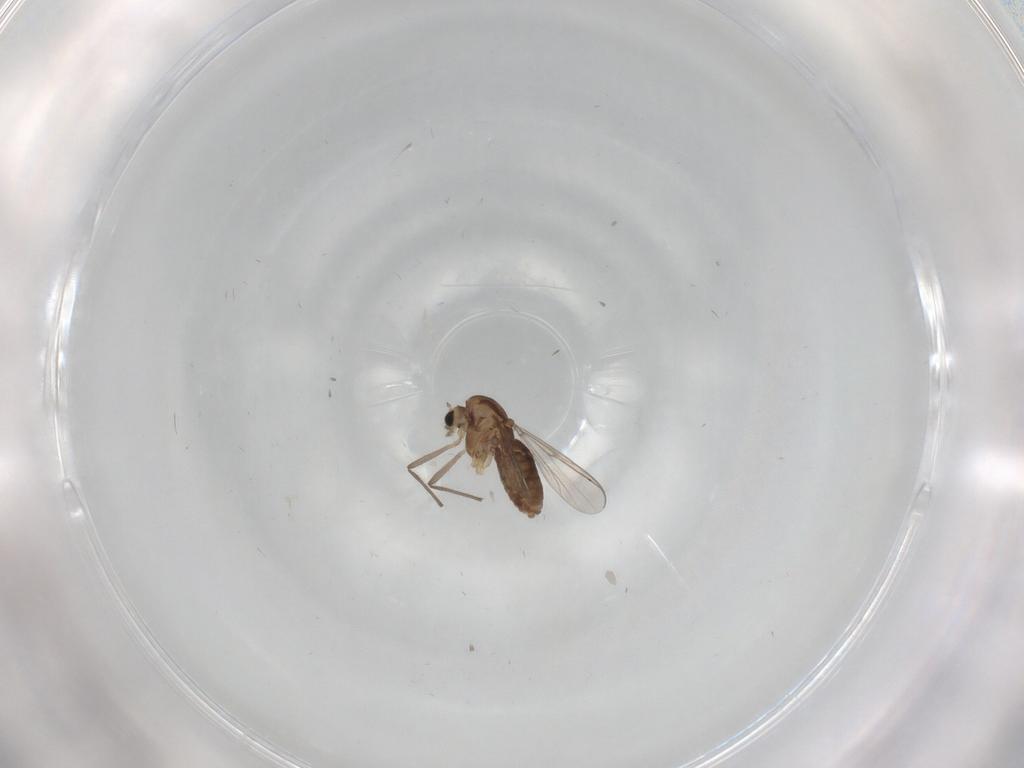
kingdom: Animalia
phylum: Arthropoda
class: Insecta
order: Diptera
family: Chironomidae
